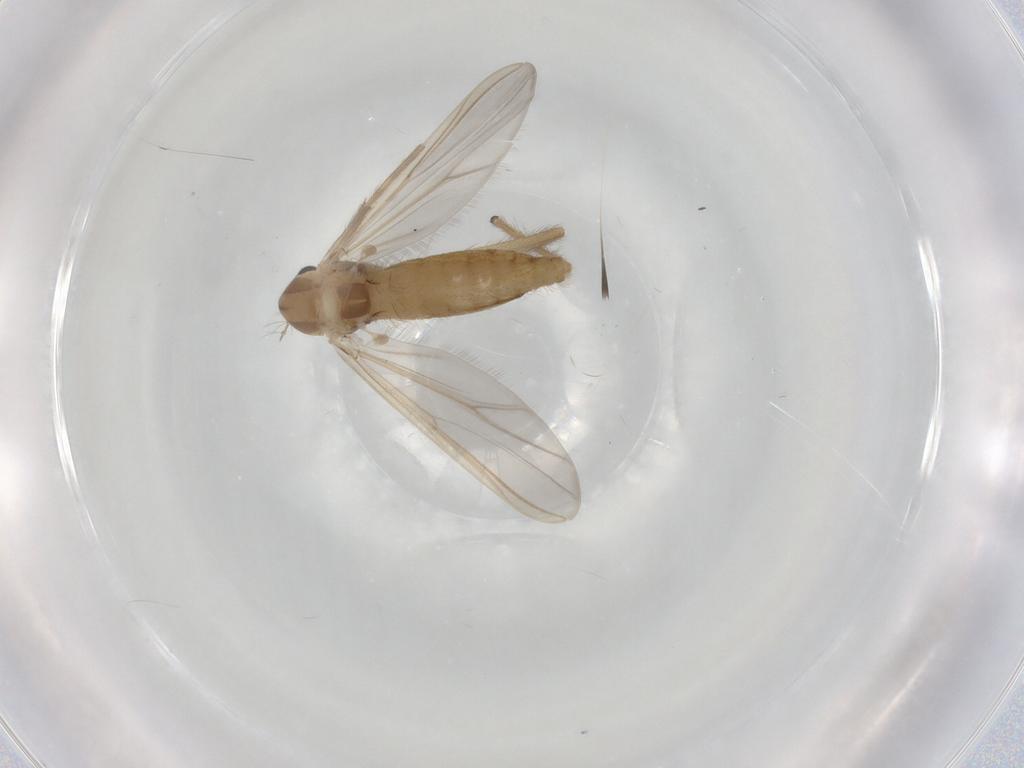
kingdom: Animalia
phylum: Arthropoda
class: Insecta
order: Diptera
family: Chironomidae
